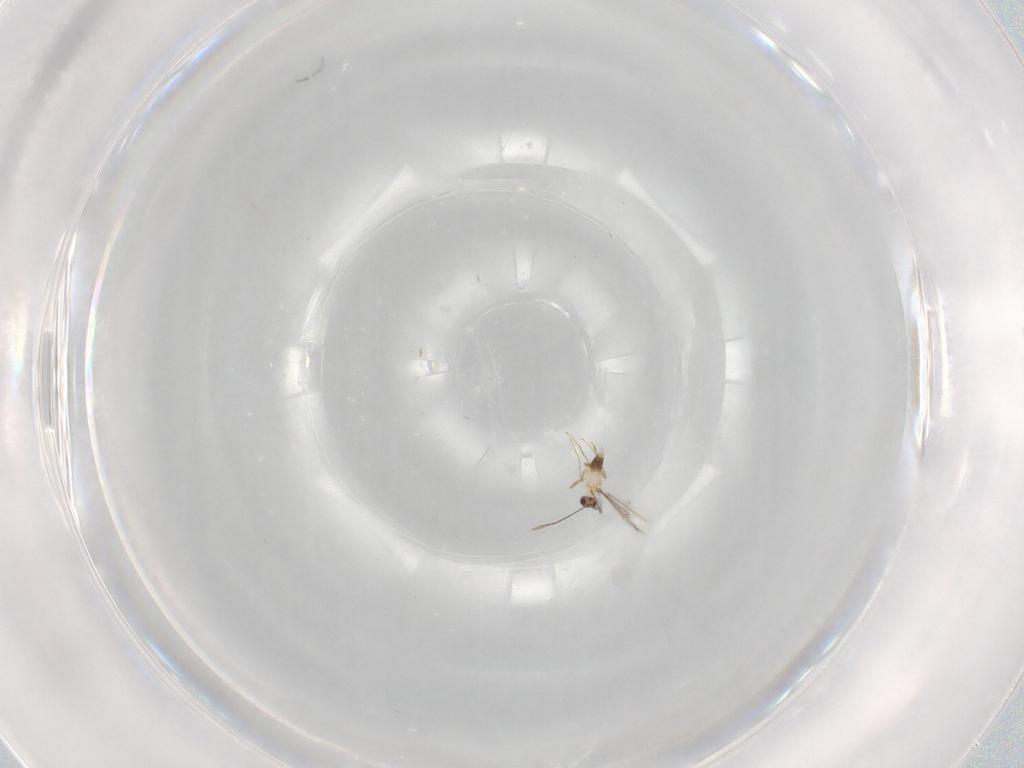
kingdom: Animalia
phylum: Arthropoda
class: Insecta
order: Hymenoptera
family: Mymaridae
